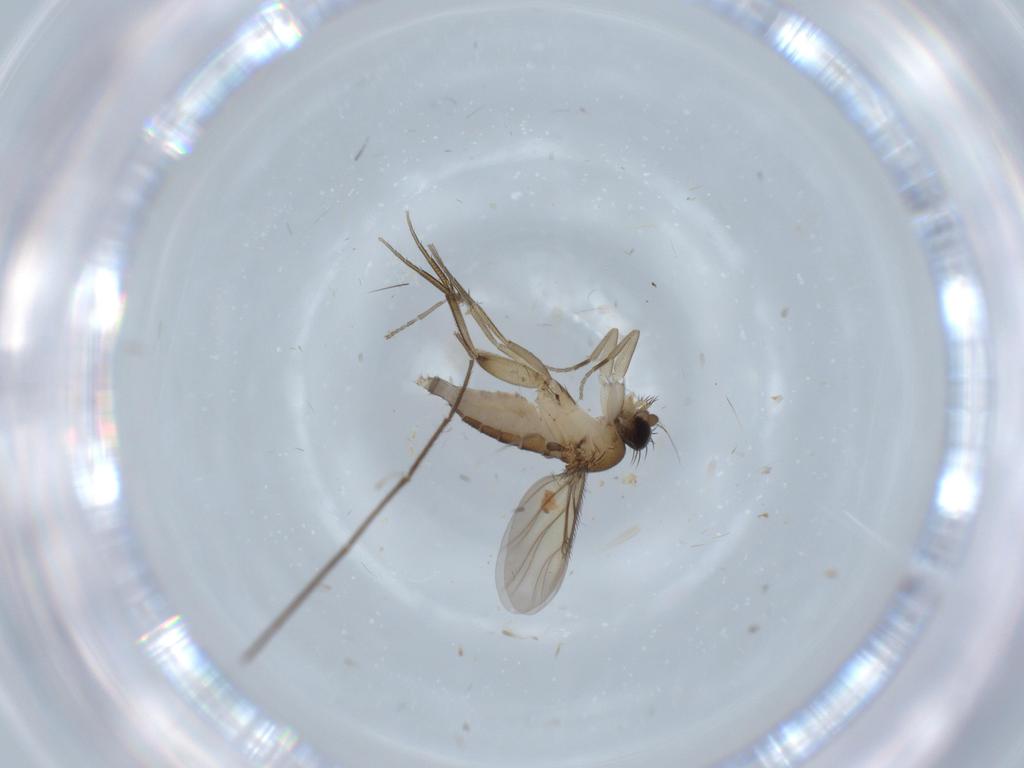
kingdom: Animalia
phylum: Arthropoda
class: Insecta
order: Diptera
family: Phoridae
